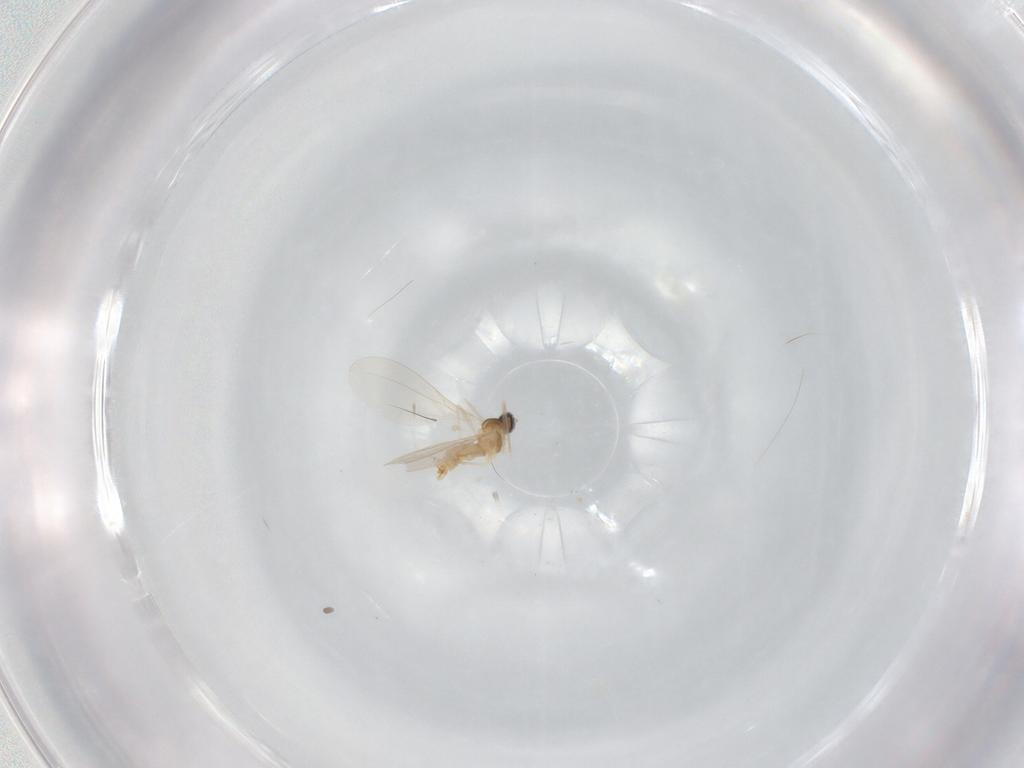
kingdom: Animalia
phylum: Arthropoda
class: Insecta
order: Diptera
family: Cecidomyiidae
